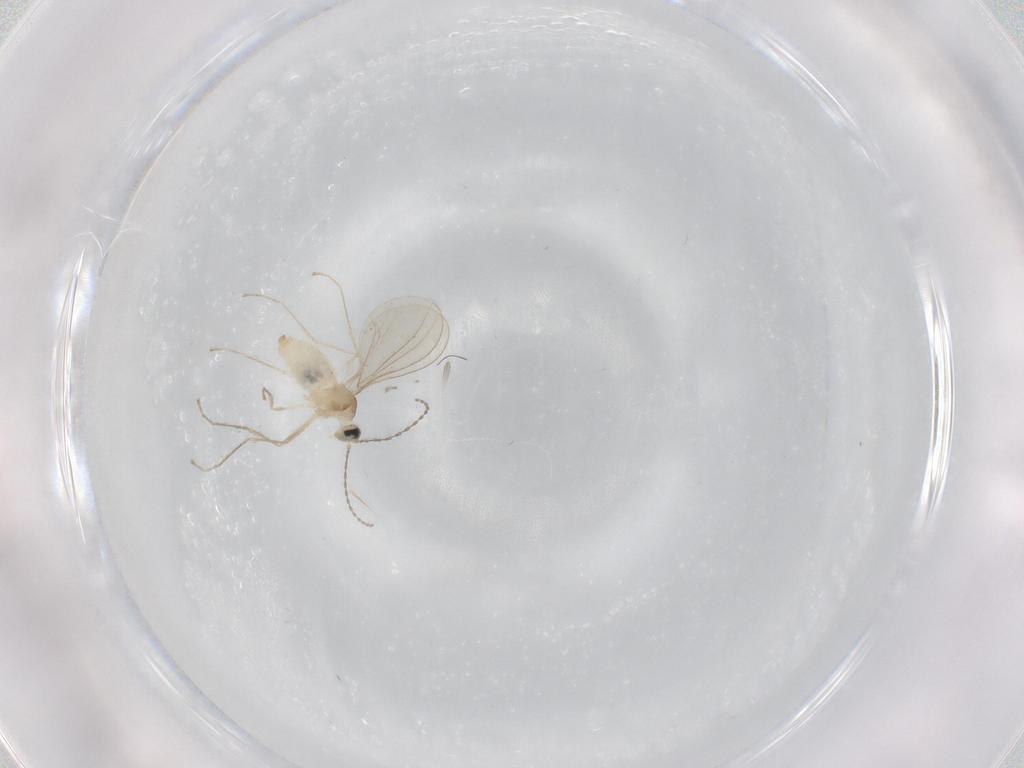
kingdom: Animalia
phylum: Arthropoda
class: Insecta
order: Diptera
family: Cecidomyiidae
